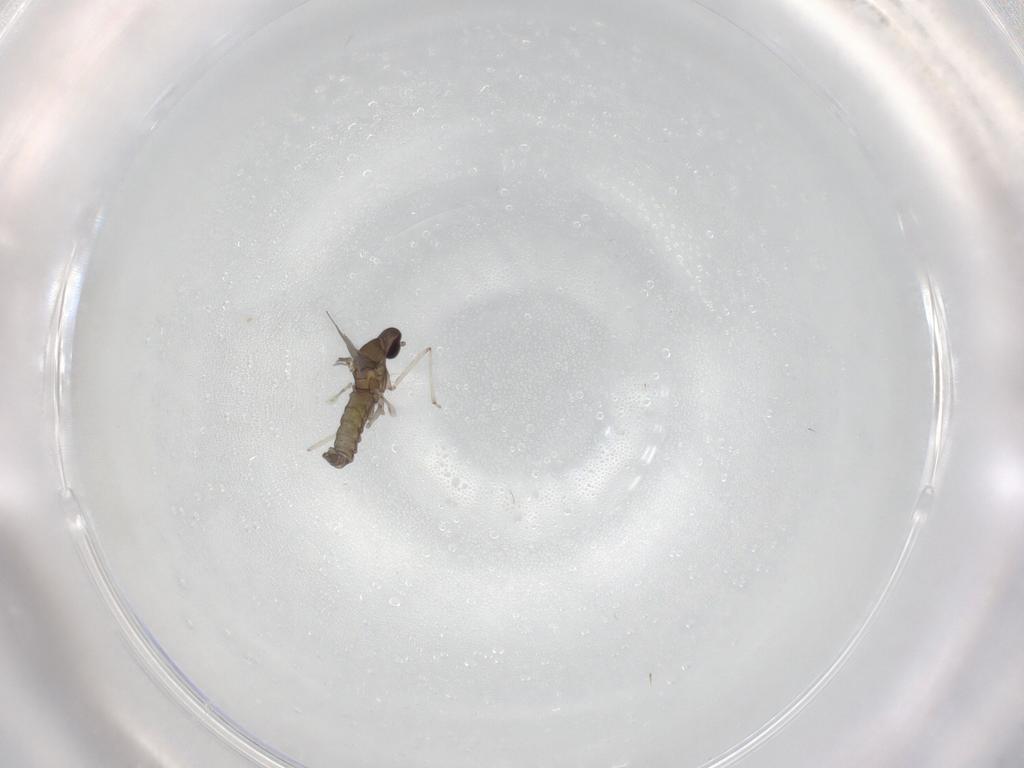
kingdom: Animalia
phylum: Arthropoda
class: Insecta
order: Diptera
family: Cecidomyiidae
